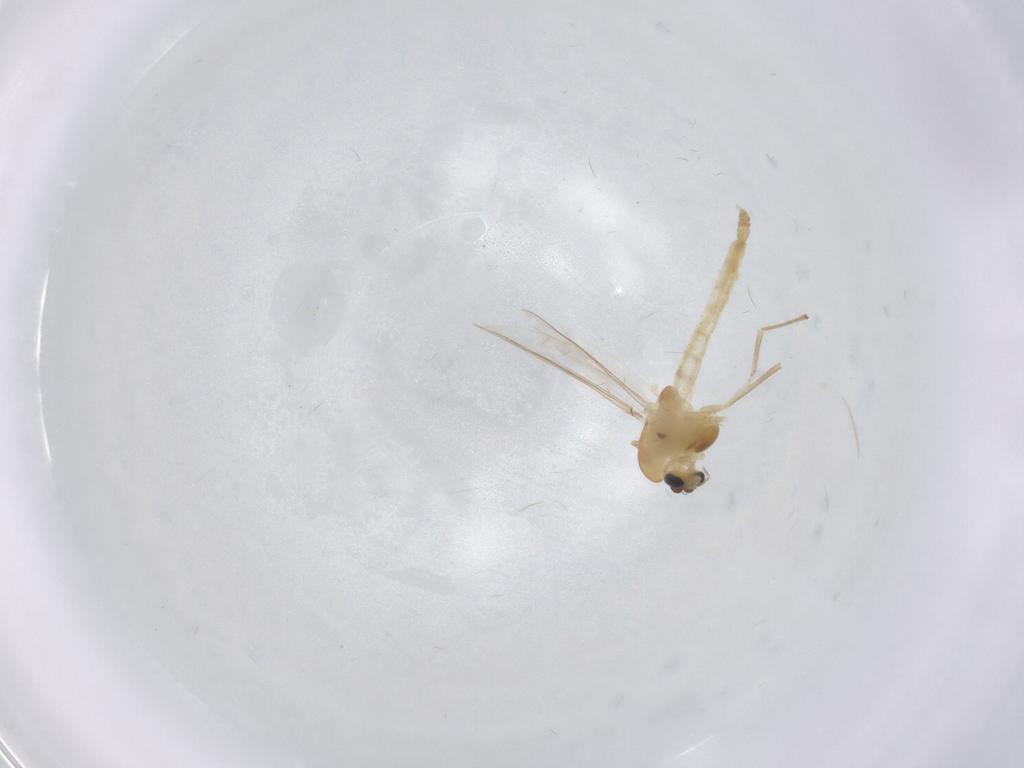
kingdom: Animalia
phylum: Arthropoda
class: Insecta
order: Diptera
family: Chironomidae
